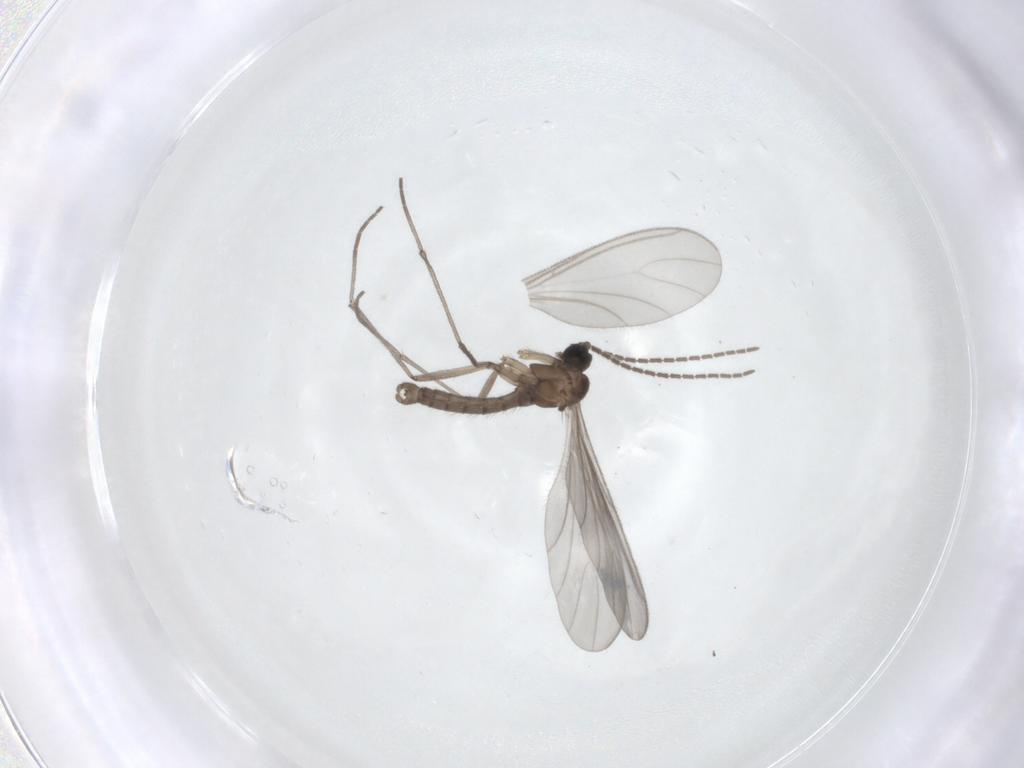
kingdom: Animalia
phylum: Arthropoda
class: Insecta
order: Diptera
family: Sciaridae
